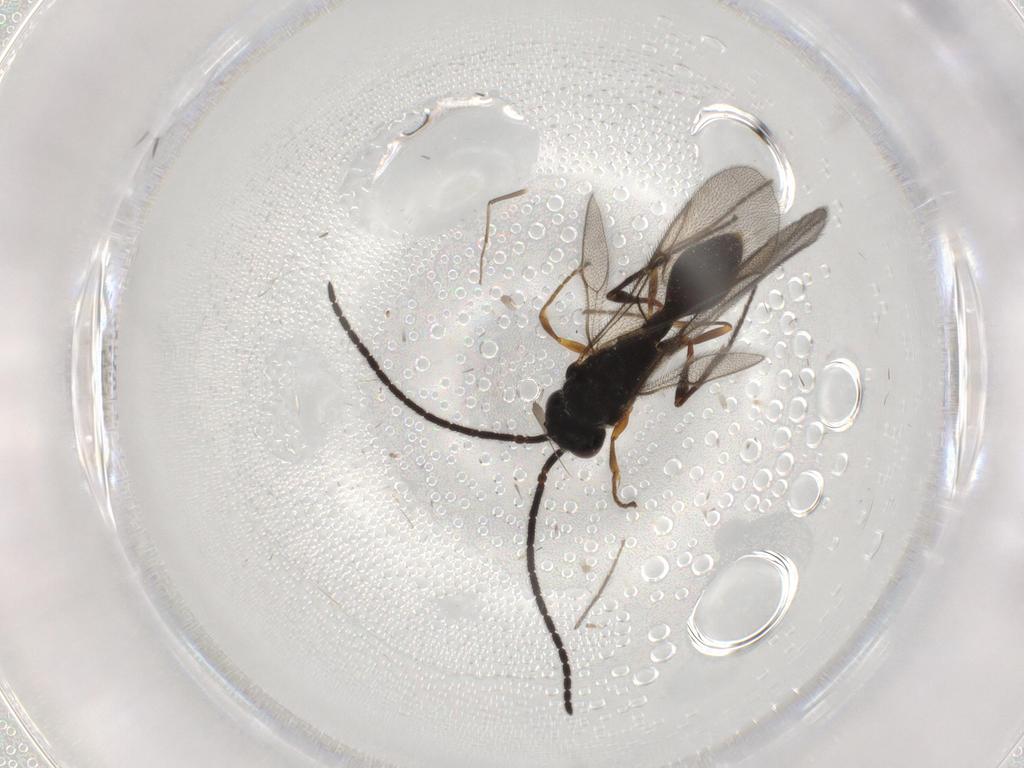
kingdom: Animalia
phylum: Arthropoda
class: Insecta
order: Hymenoptera
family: Diapriidae
